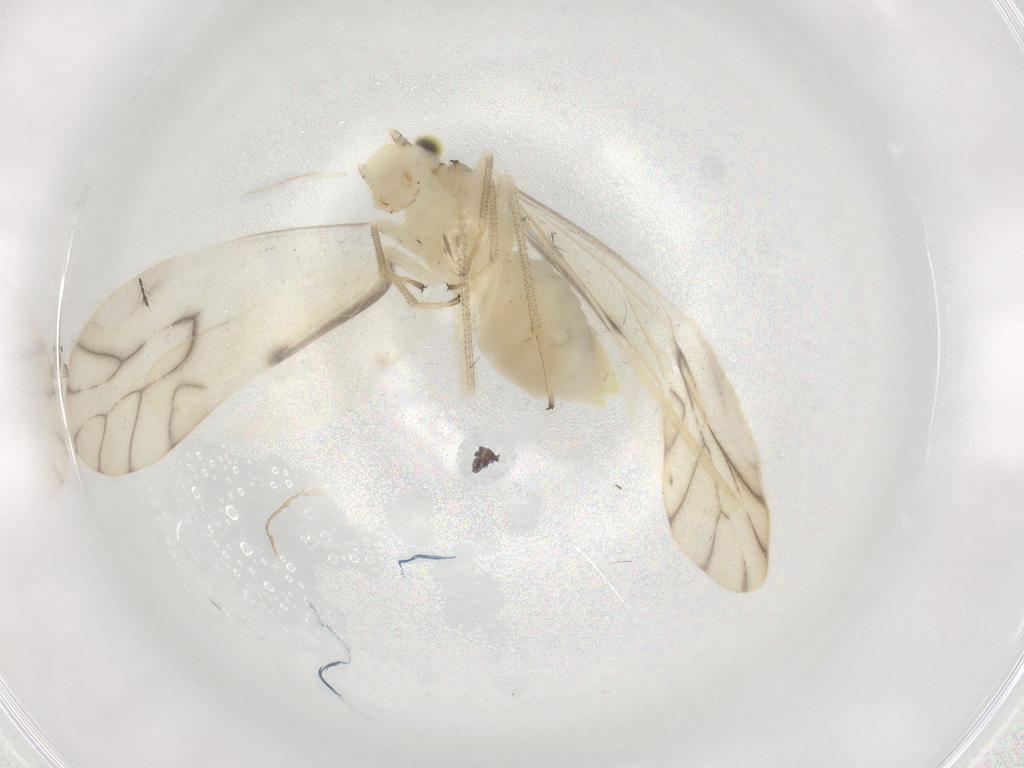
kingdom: Animalia
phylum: Arthropoda
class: Insecta
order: Psocodea
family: Caeciliusidae
